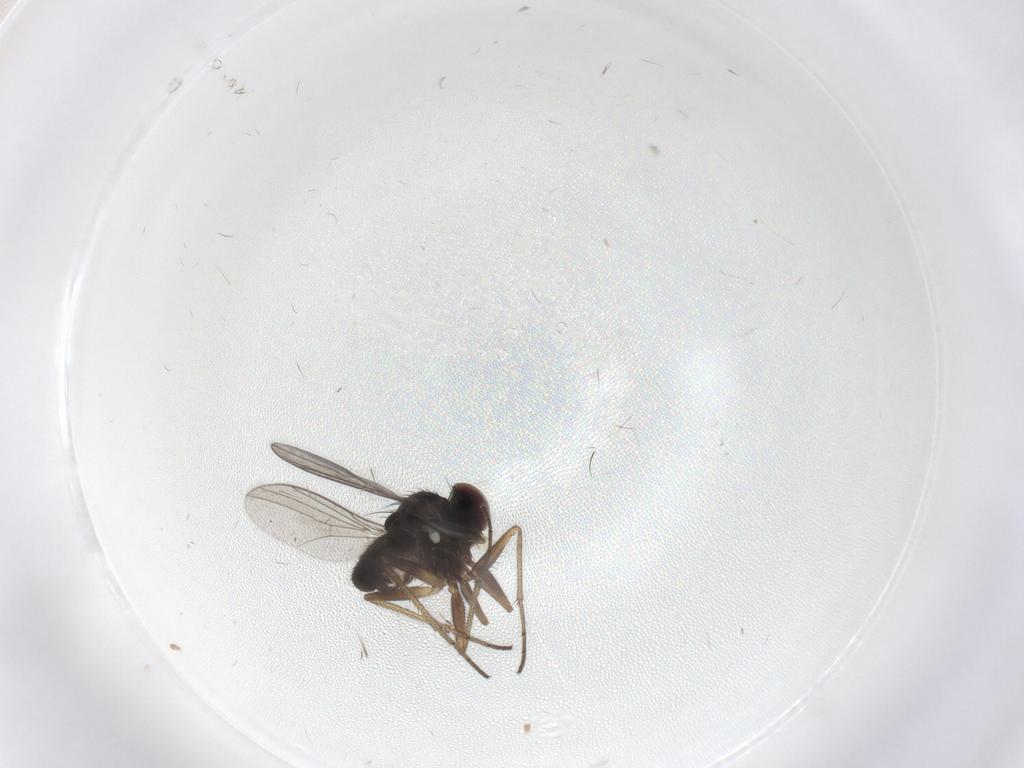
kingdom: Animalia
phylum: Arthropoda
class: Insecta
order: Diptera
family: Dolichopodidae
